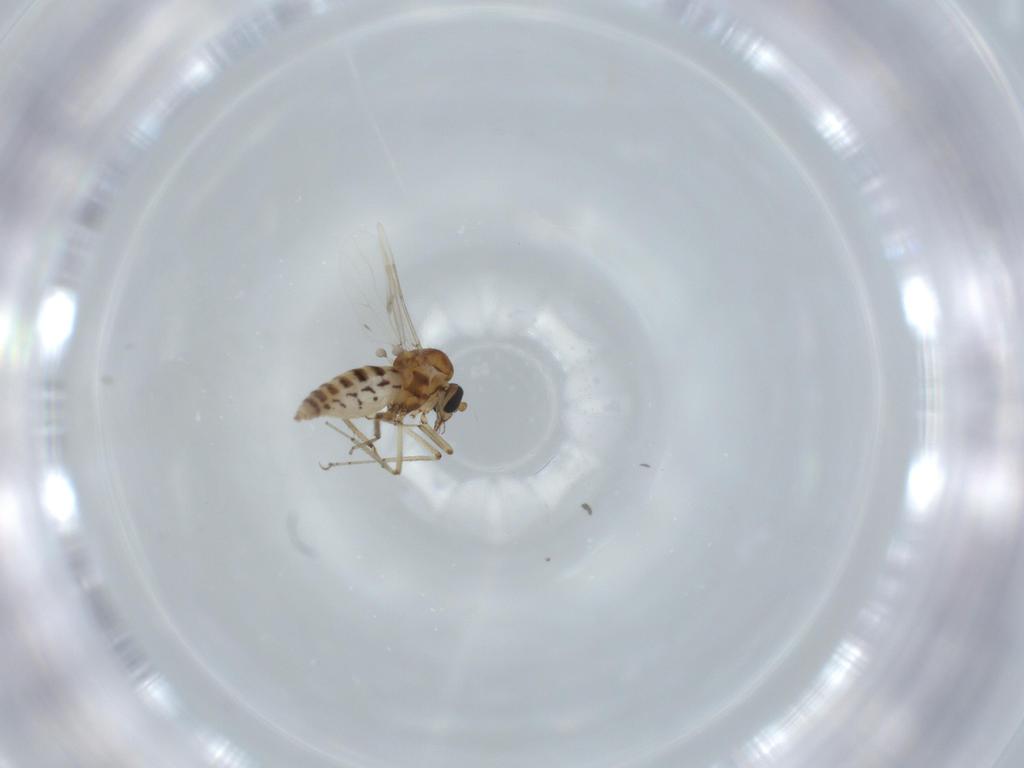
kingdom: Animalia
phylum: Arthropoda
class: Insecta
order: Diptera
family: Ceratopogonidae
